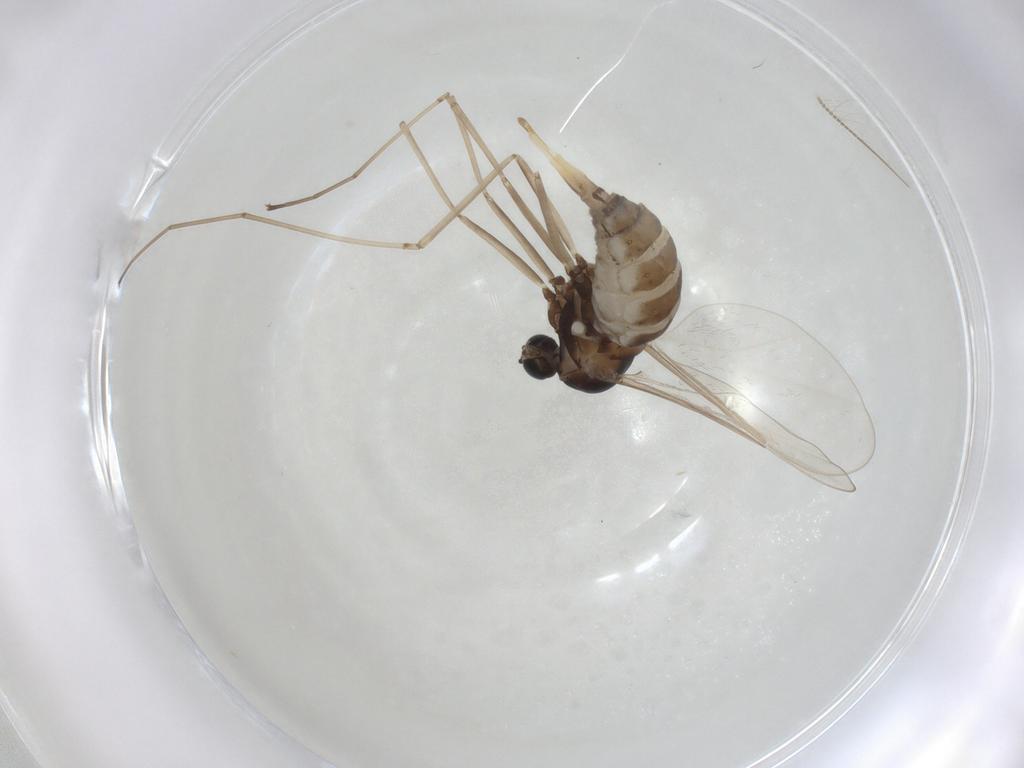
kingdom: Animalia
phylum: Arthropoda
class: Insecta
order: Diptera
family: Cecidomyiidae
